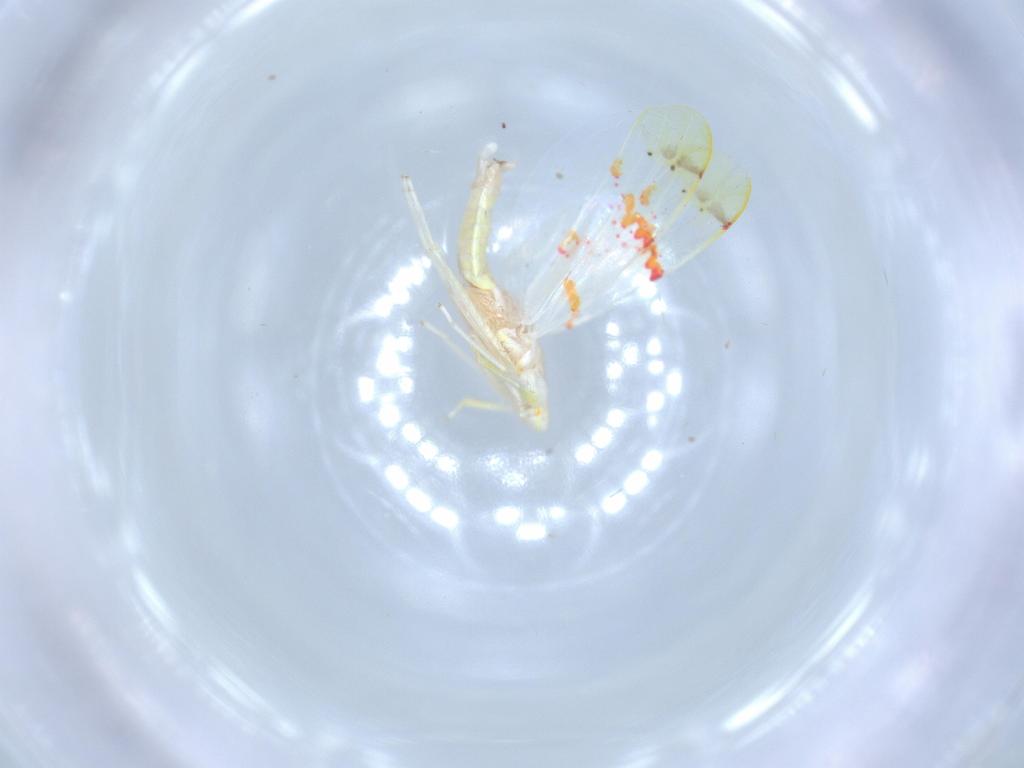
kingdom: Animalia
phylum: Arthropoda
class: Insecta
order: Hemiptera
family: Cicadellidae
